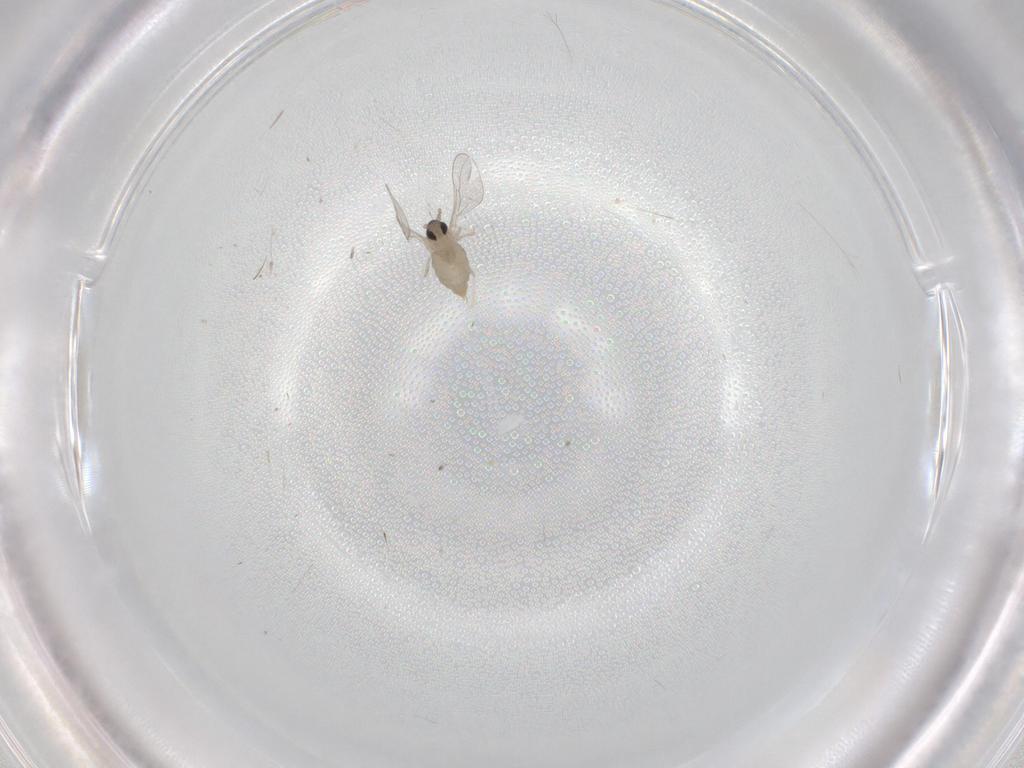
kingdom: Animalia
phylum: Arthropoda
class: Insecta
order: Diptera
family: Cecidomyiidae
